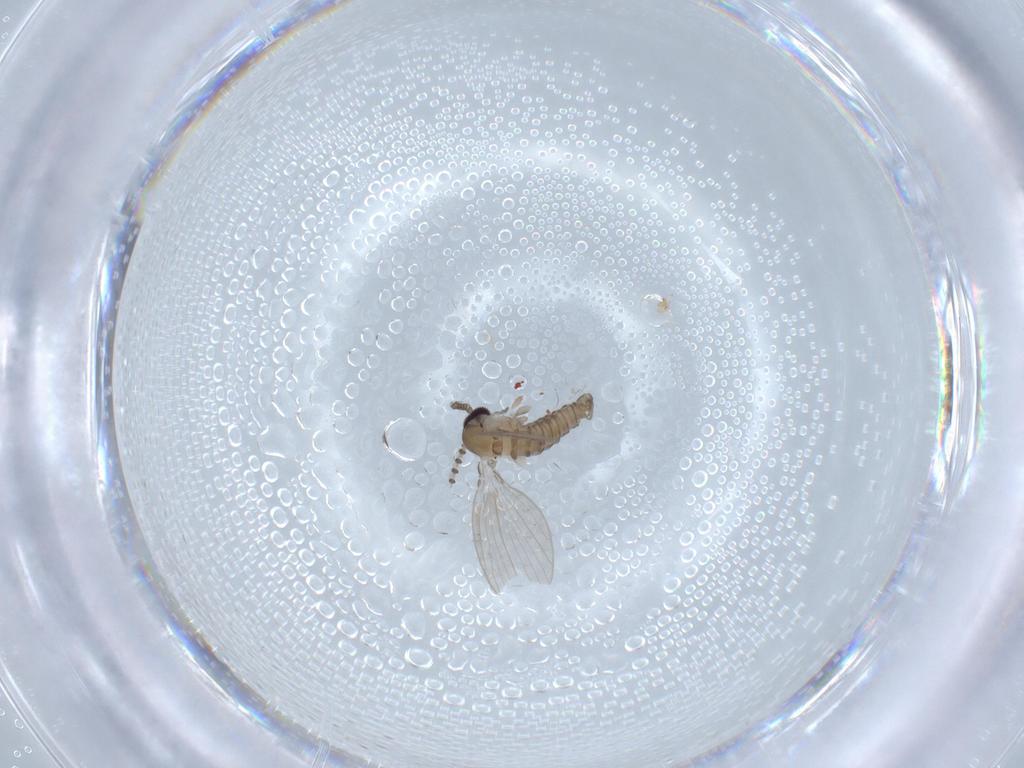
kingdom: Animalia
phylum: Arthropoda
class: Insecta
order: Diptera
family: Psychodidae
